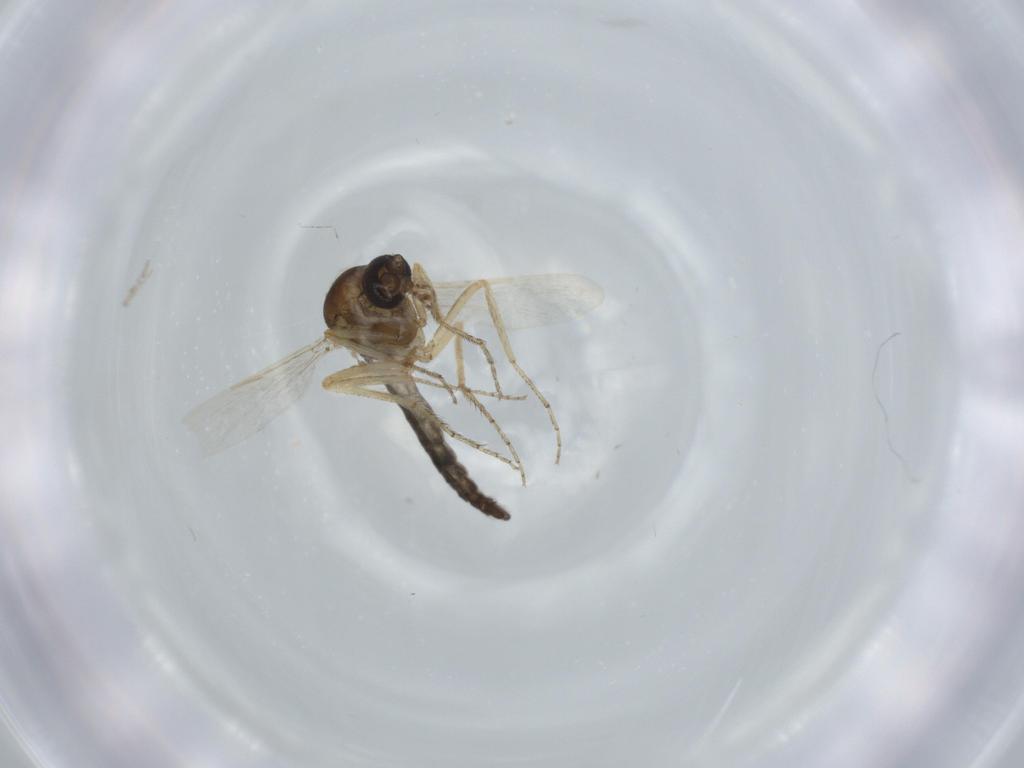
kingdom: Animalia
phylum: Arthropoda
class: Insecta
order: Diptera
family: Ceratopogonidae
